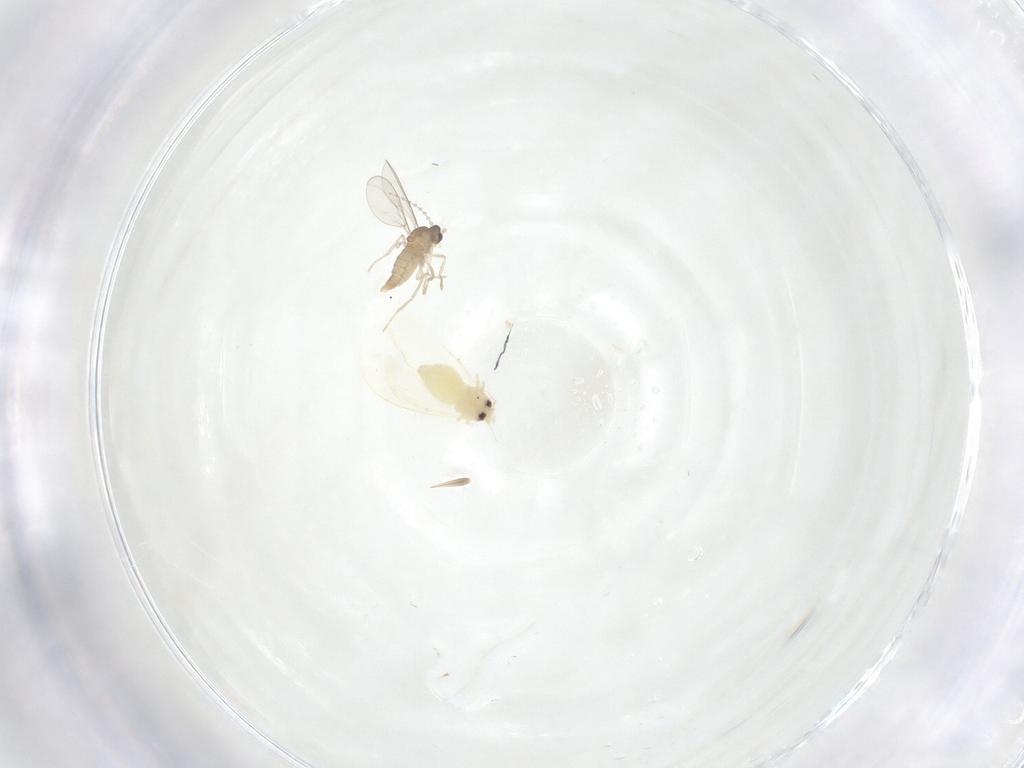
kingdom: Animalia
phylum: Arthropoda
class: Insecta
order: Diptera
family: Cecidomyiidae
